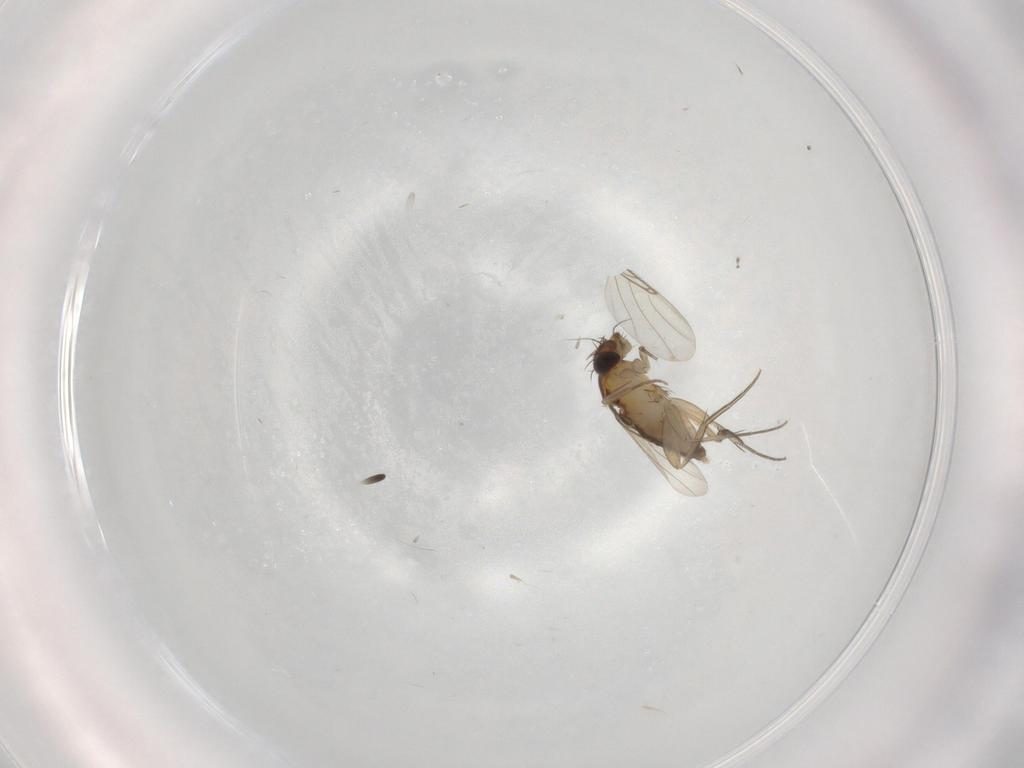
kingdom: Animalia
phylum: Arthropoda
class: Insecta
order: Diptera
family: Phoridae
